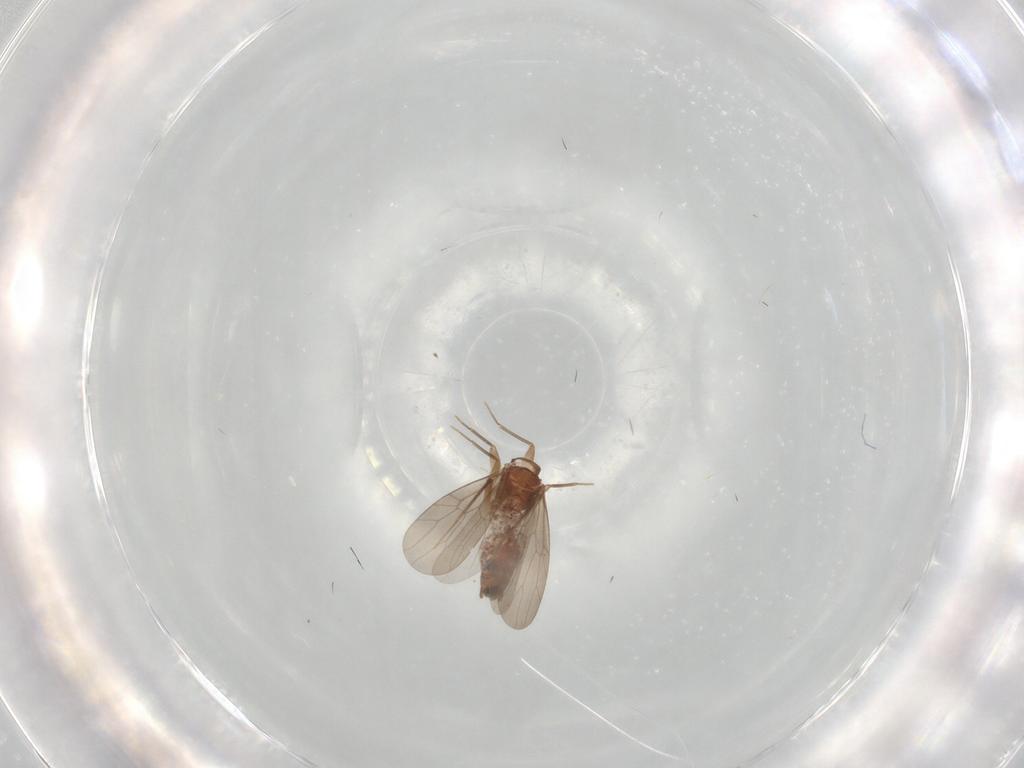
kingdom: Animalia
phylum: Arthropoda
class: Insecta
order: Psocodea
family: Lepidopsocidae
